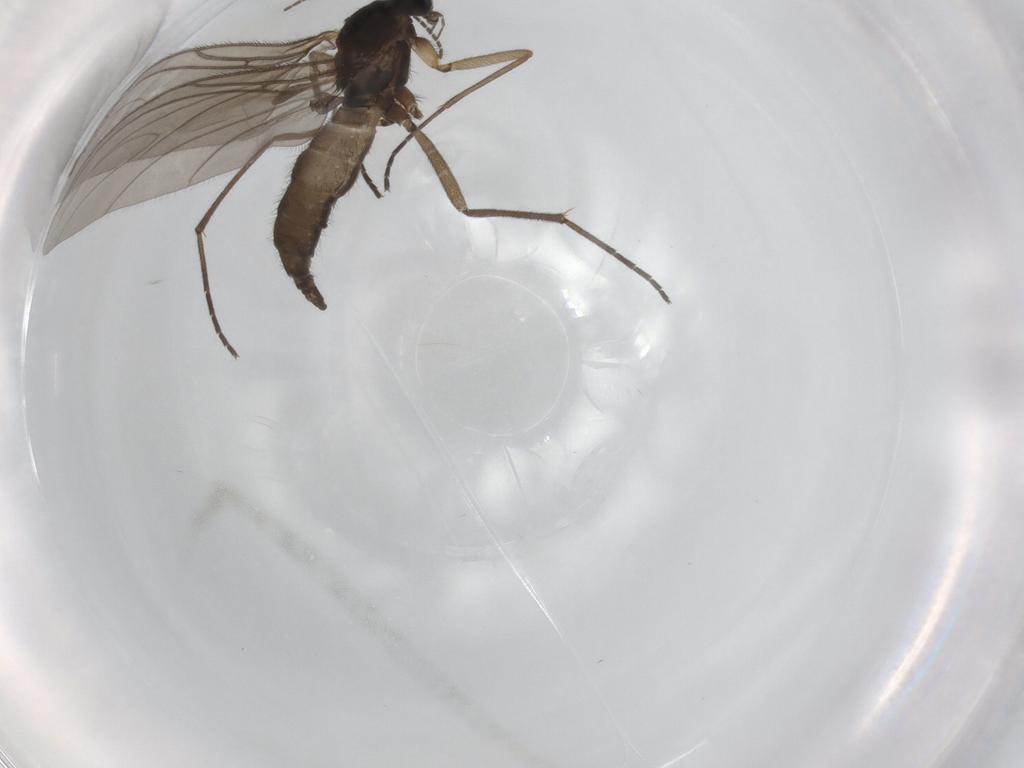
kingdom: Animalia
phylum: Arthropoda
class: Insecta
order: Diptera
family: Sciaridae
